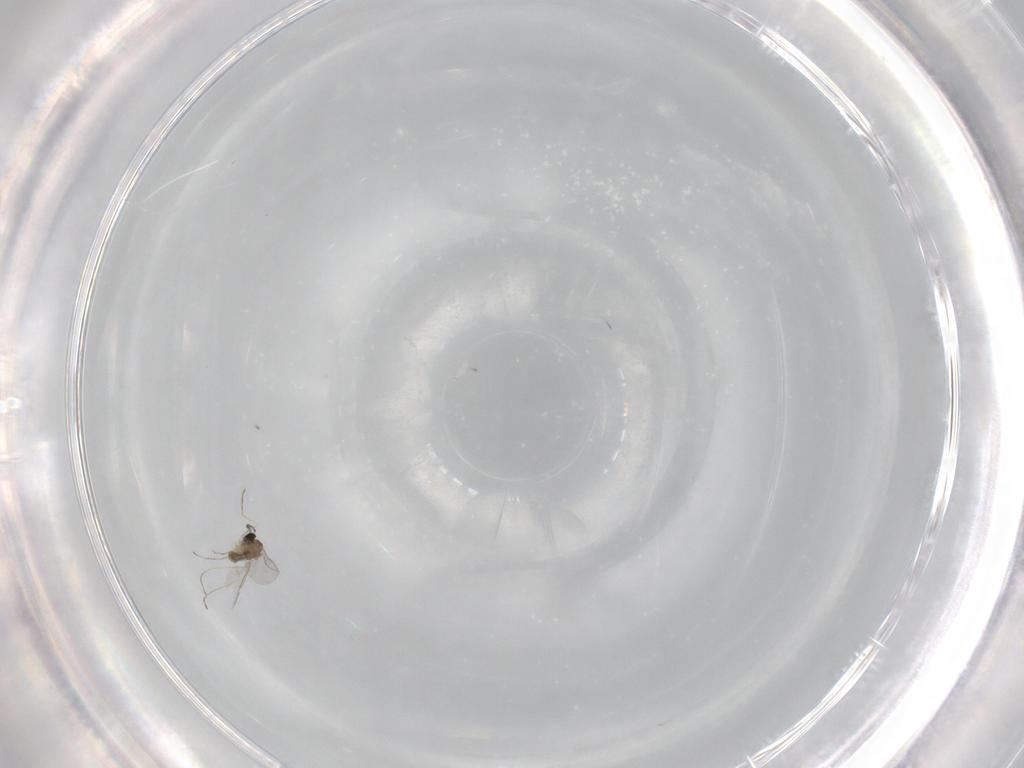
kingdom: Animalia
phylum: Arthropoda
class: Insecta
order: Diptera
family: Cecidomyiidae
